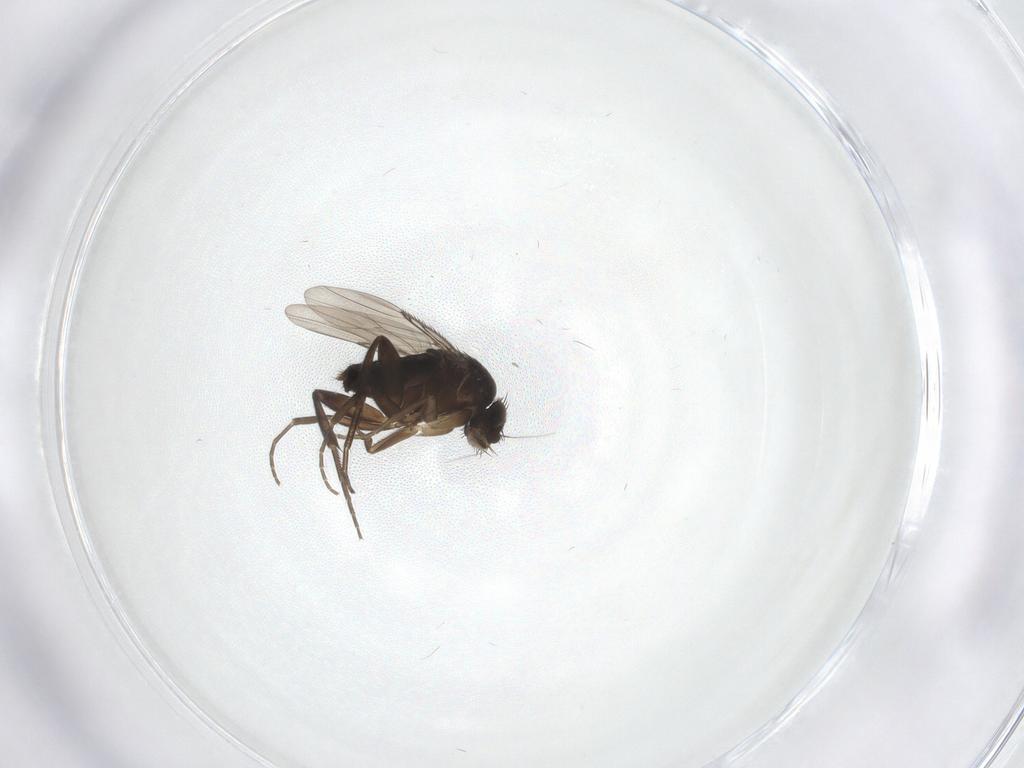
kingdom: Animalia
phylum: Arthropoda
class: Insecta
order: Diptera
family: Phoridae
